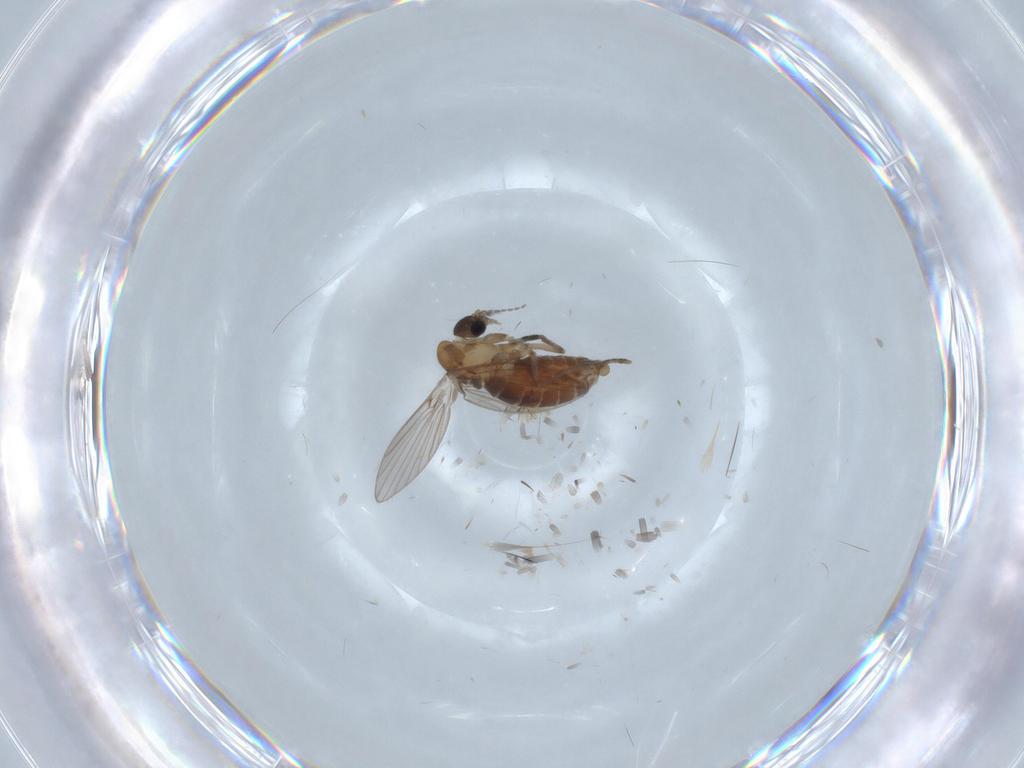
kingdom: Animalia
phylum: Arthropoda
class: Insecta
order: Diptera
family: Psychodidae
